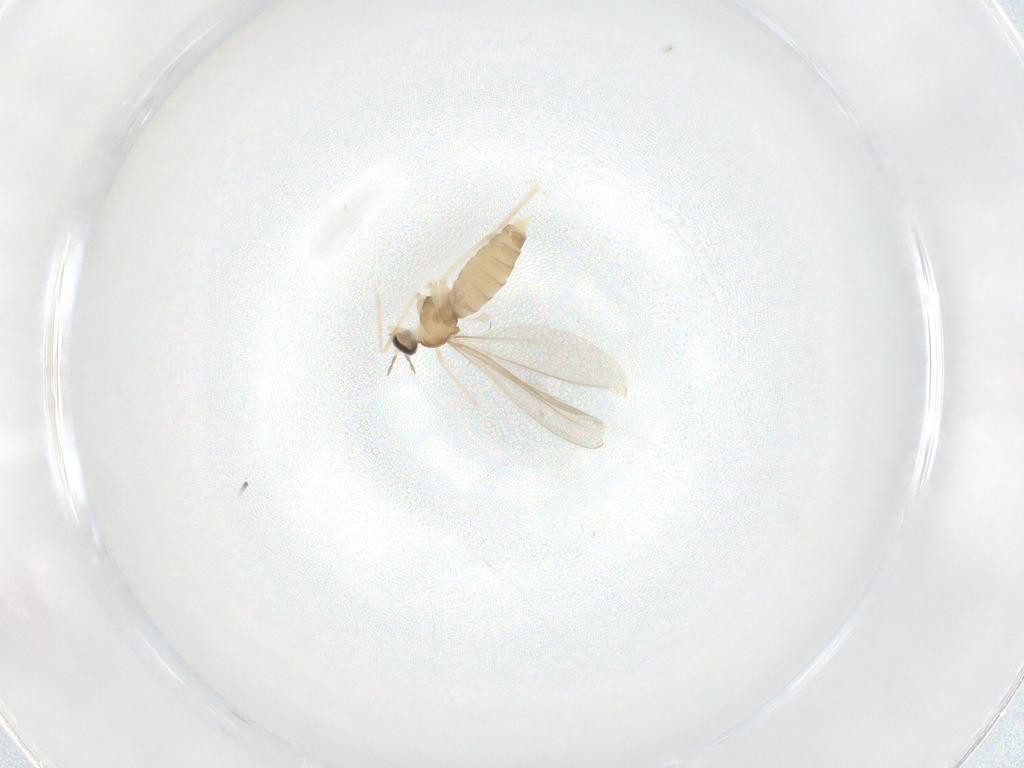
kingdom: Animalia
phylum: Arthropoda
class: Insecta
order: Diptera
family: Cecidomyiidae
